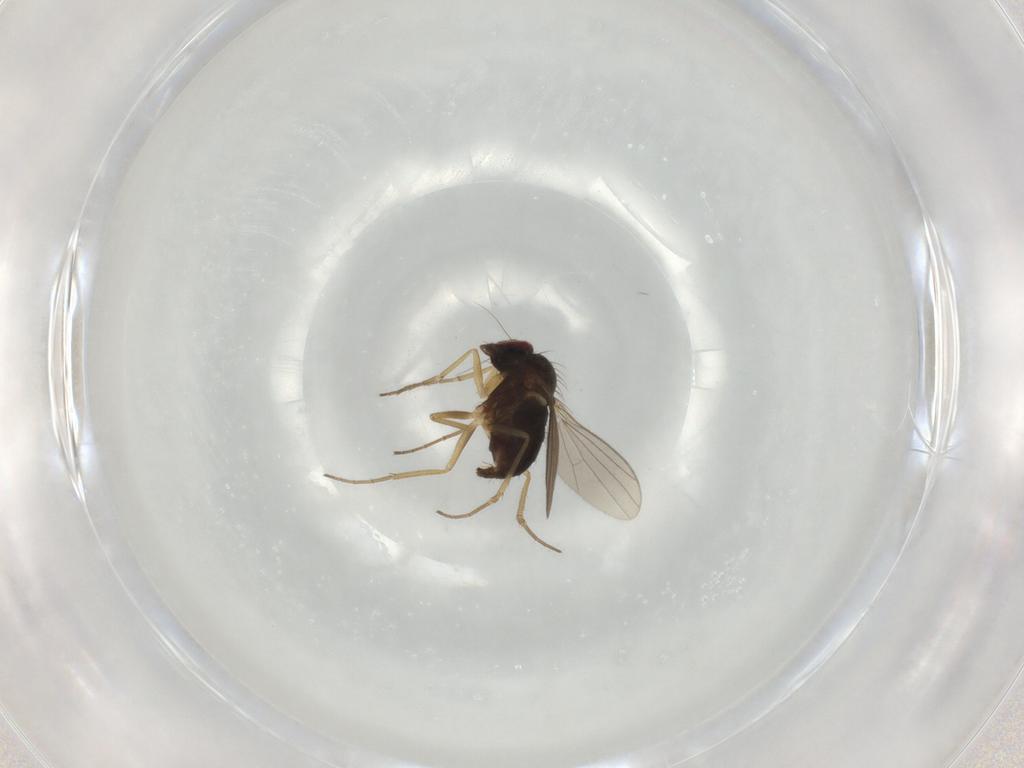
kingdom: Animalia
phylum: Arthropoda
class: Insecta
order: Diptera
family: Dolichopodidae
